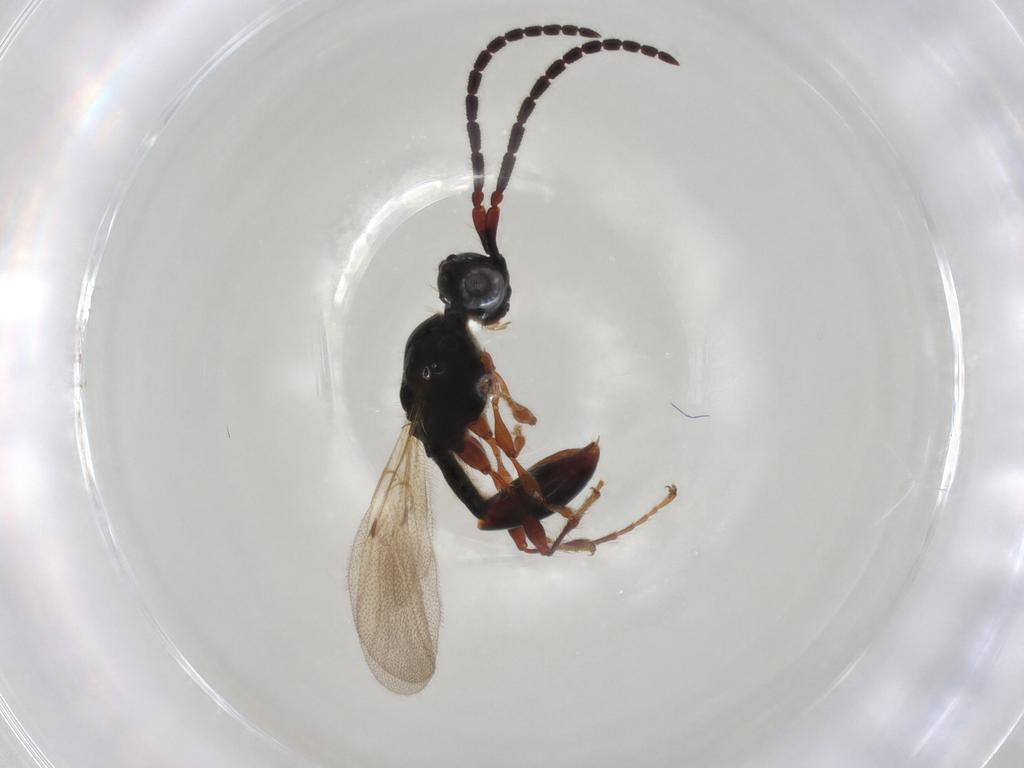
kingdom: Animalia
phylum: Arthropoda
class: Insecta
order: Hymenoptera
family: Diapriidae
